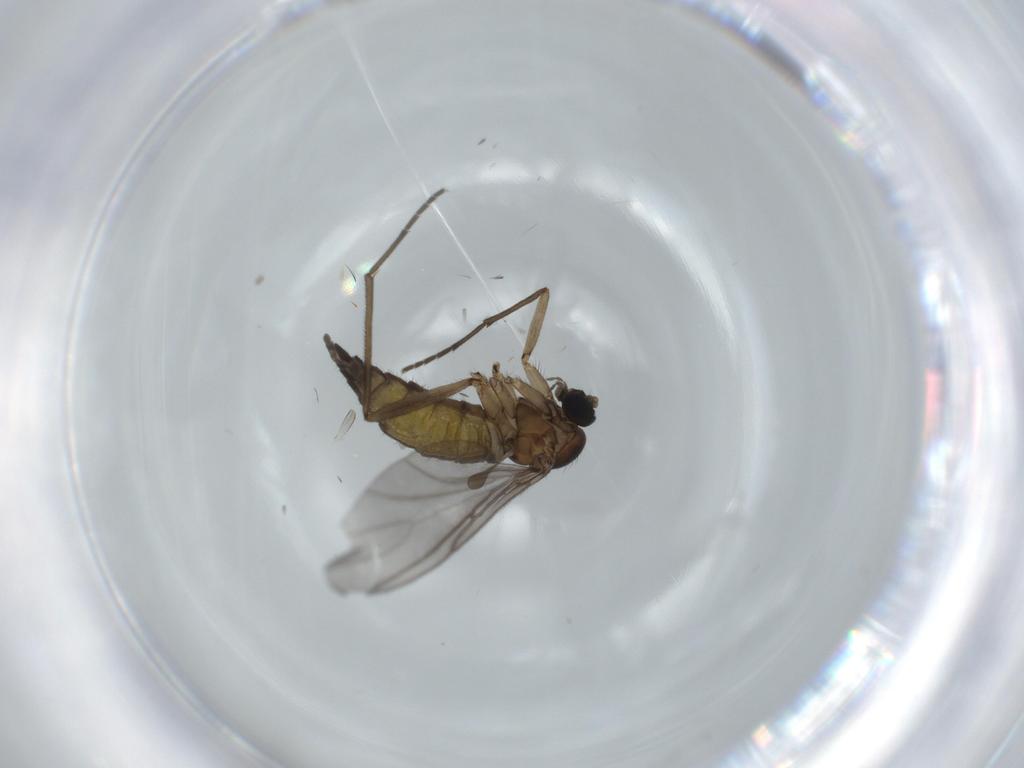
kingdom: Animalia
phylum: Arthropoda
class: Insecta
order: Diptera
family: Sciaridae
